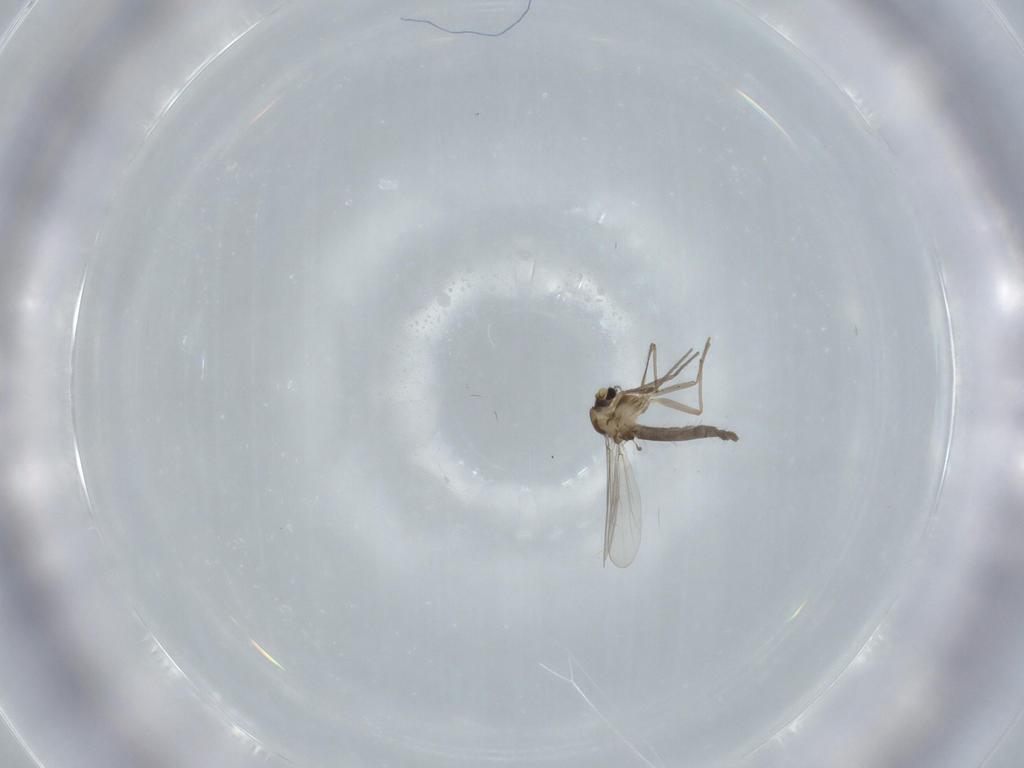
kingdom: Animalia
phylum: Arthropoda
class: Insecta
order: Diptera
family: Chironomidae
